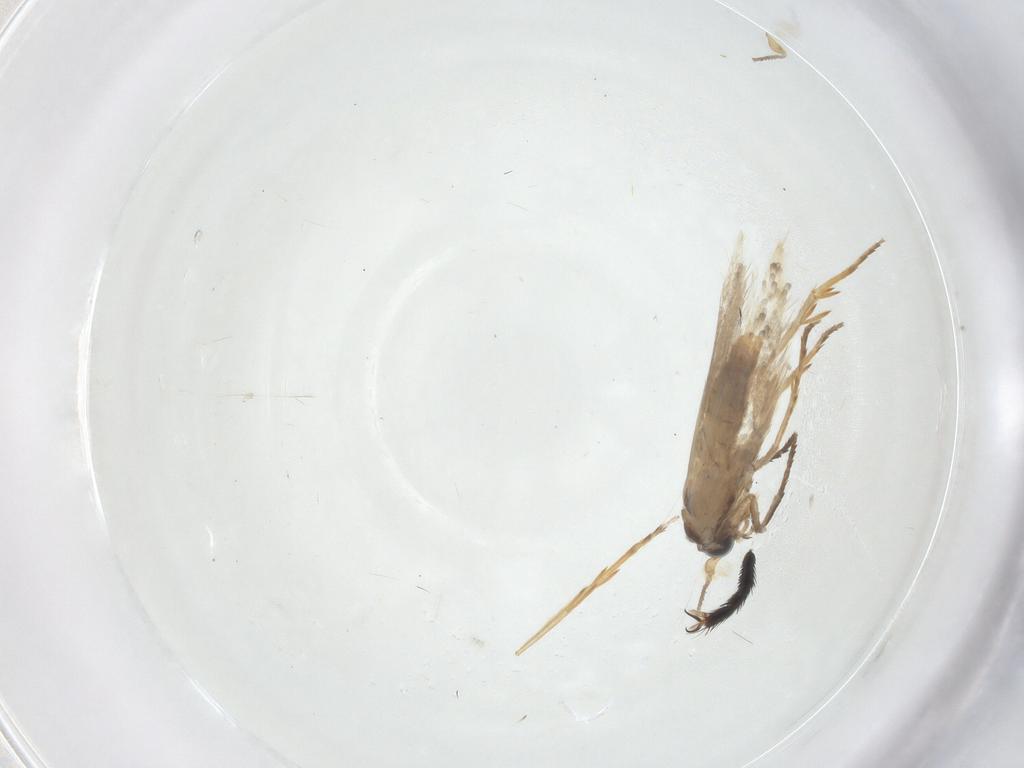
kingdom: Animalia
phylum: Arthropoda
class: Insecta
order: Lepidoptera
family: Nepticulidae
